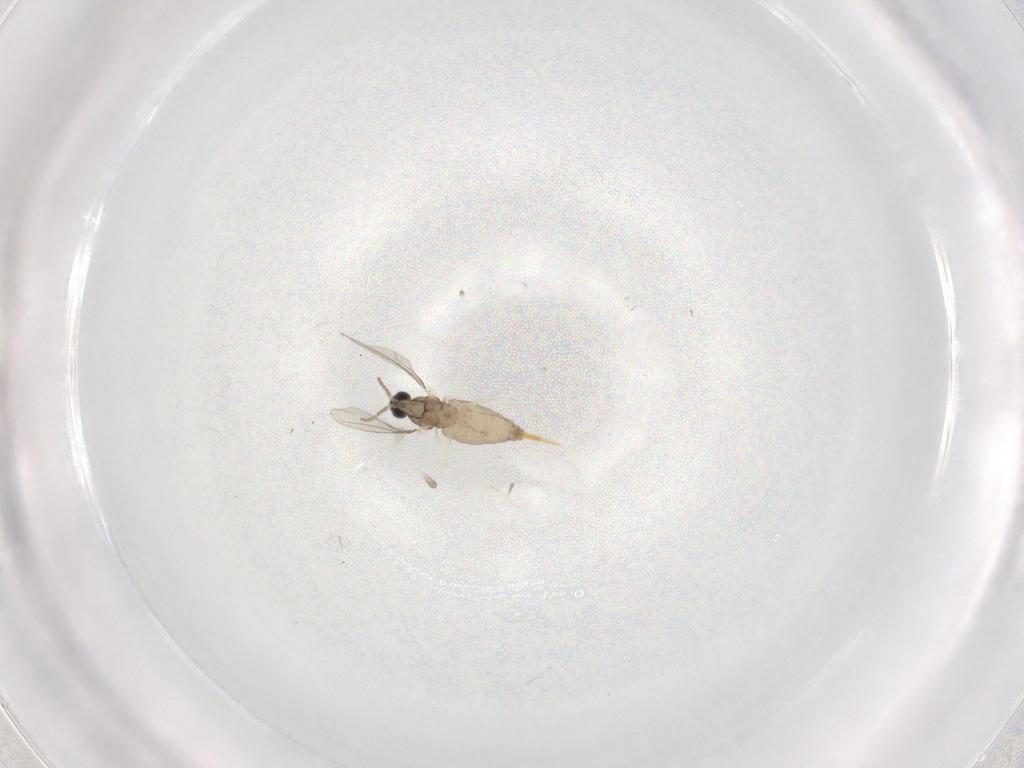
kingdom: Animalia
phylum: Arthropoda
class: Insecta
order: Diptera
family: Cecidomyiidae
